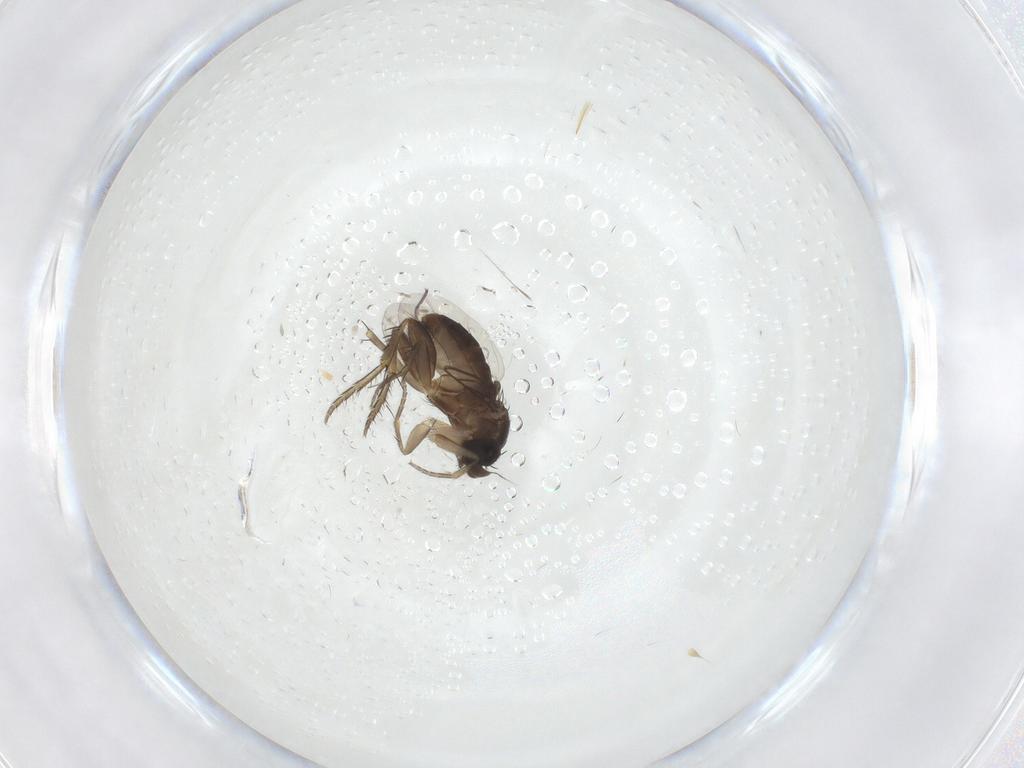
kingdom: Animalia
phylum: Arthropoda
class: Insecta
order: Diptera
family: Phoridae
